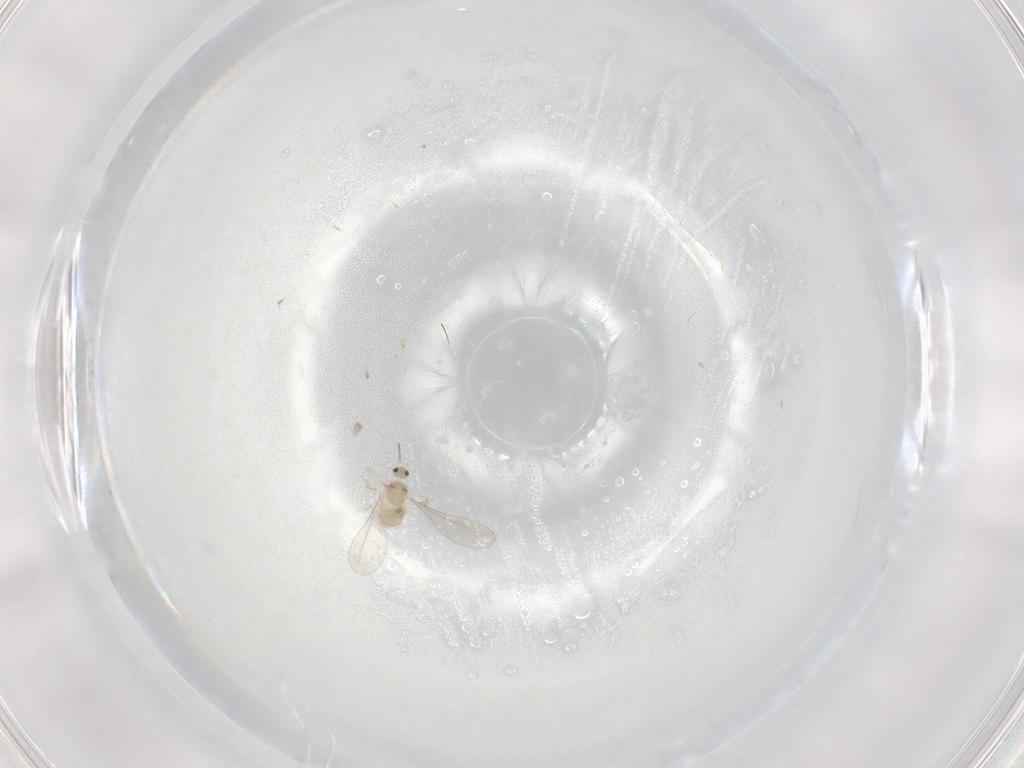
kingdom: Animalia
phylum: Arthropoda
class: Insecta
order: Diptera
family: Cecidomyiidae
